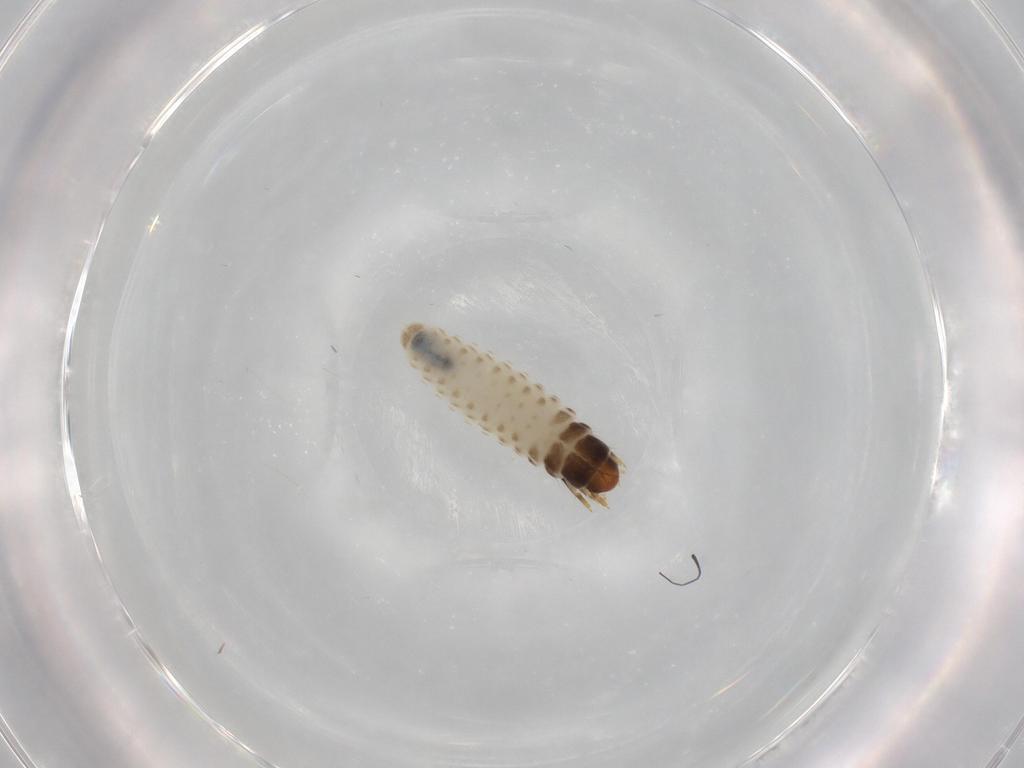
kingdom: Animalia
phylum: Arthropoda
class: Insecta
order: Lepidoptera
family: Psychidae
